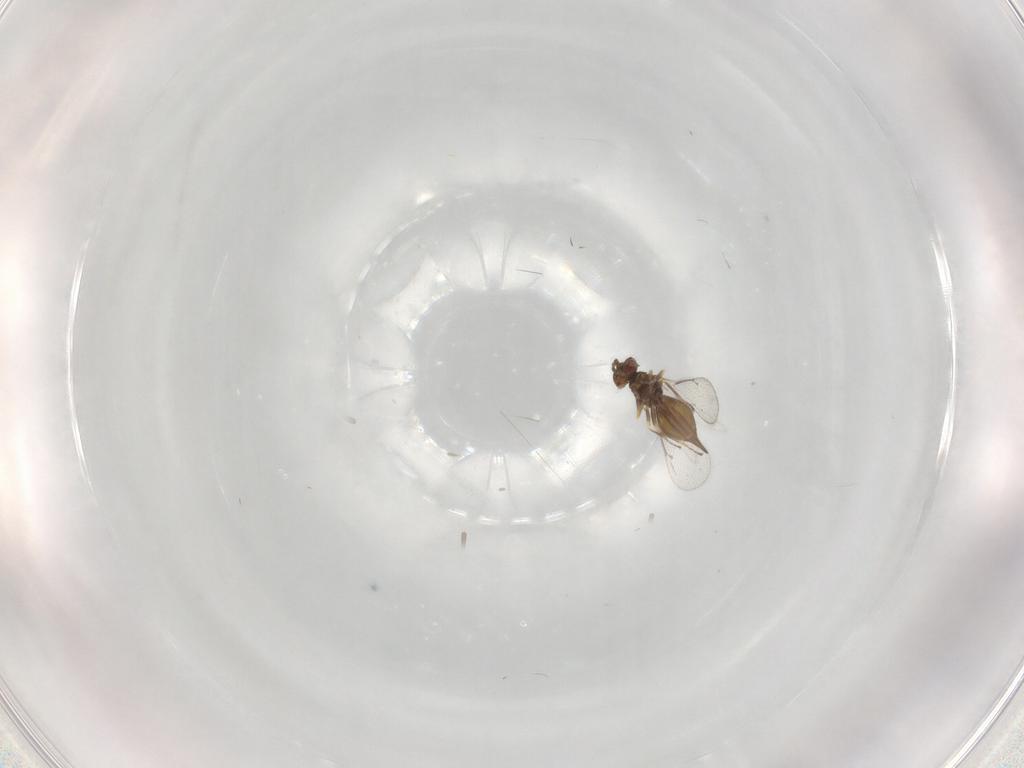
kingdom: Animalia
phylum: Arthropoda
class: Insecta
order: Hymenoptera
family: Eulophidae
